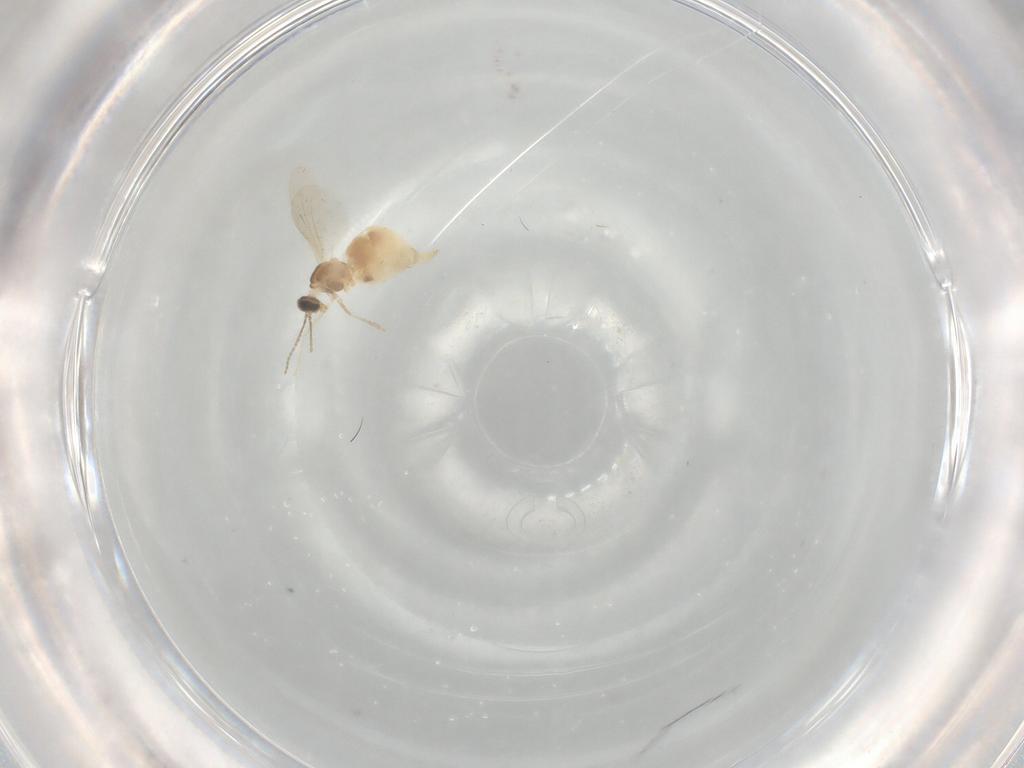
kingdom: Animalia
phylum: Arthropoda
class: Insecta
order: Diptera
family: Cecidomyiidae
